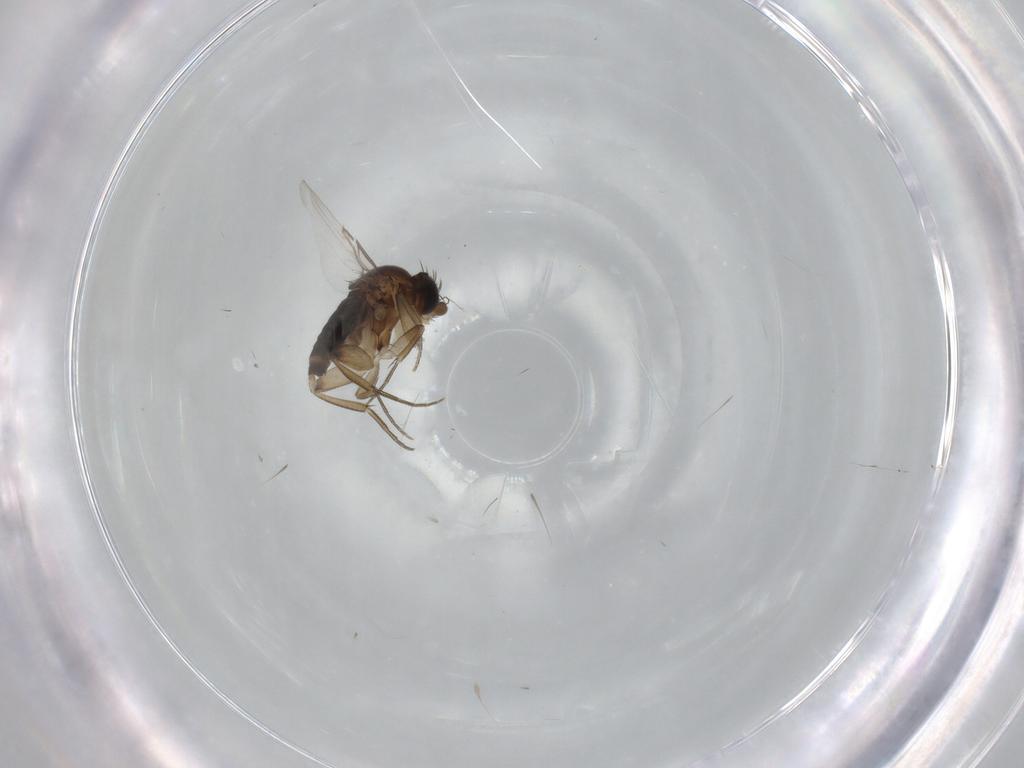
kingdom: Animalia
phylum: Arthropoda
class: Insecta
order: Diptera
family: Phoridae
